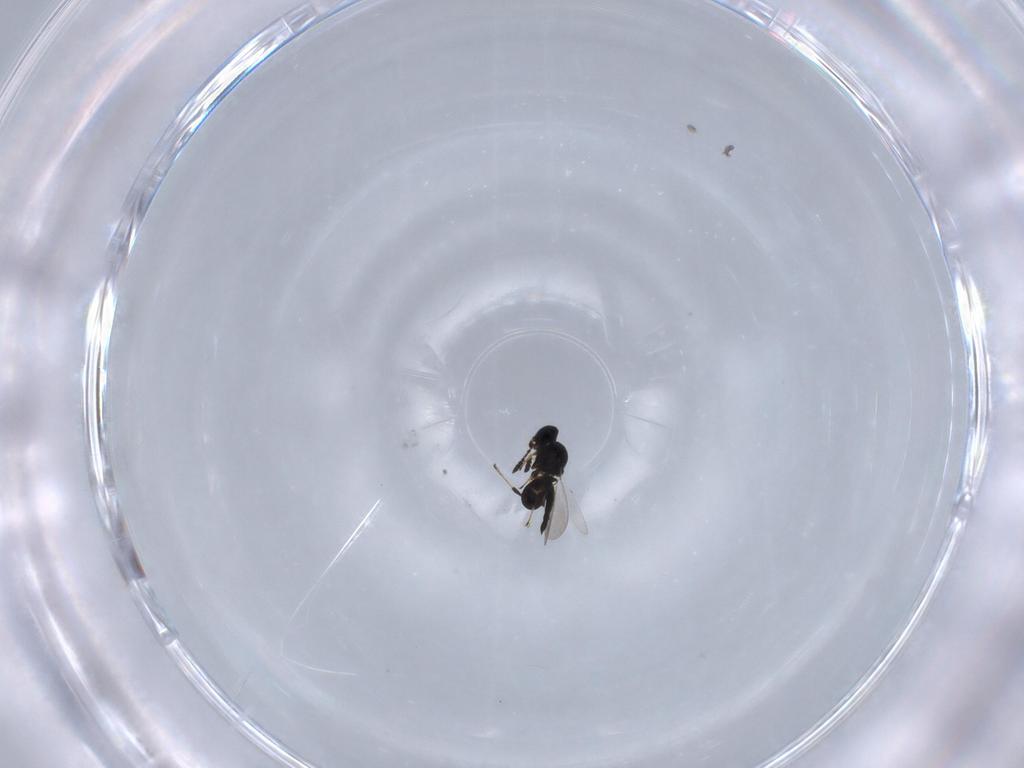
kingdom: Animalia
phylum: Arthropoda
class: Insecta
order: Hymenoptera
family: Platygastridae
